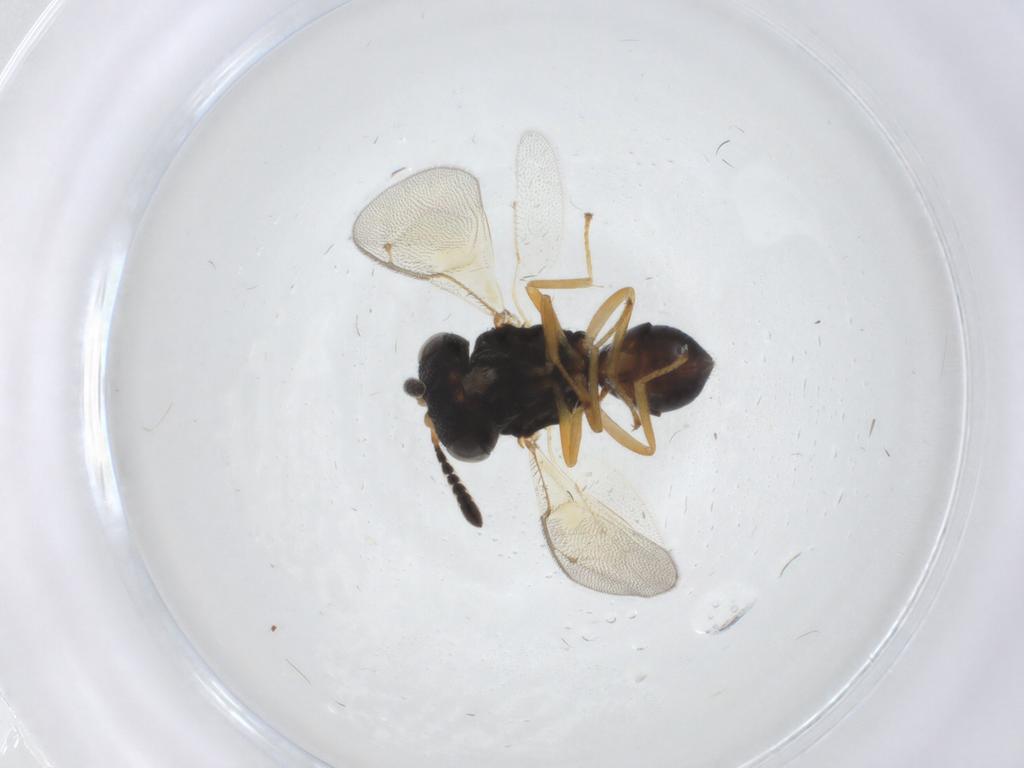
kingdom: Animalia
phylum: Arthropoda
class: Insecta
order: Hymenoptera
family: Pteromalidae
